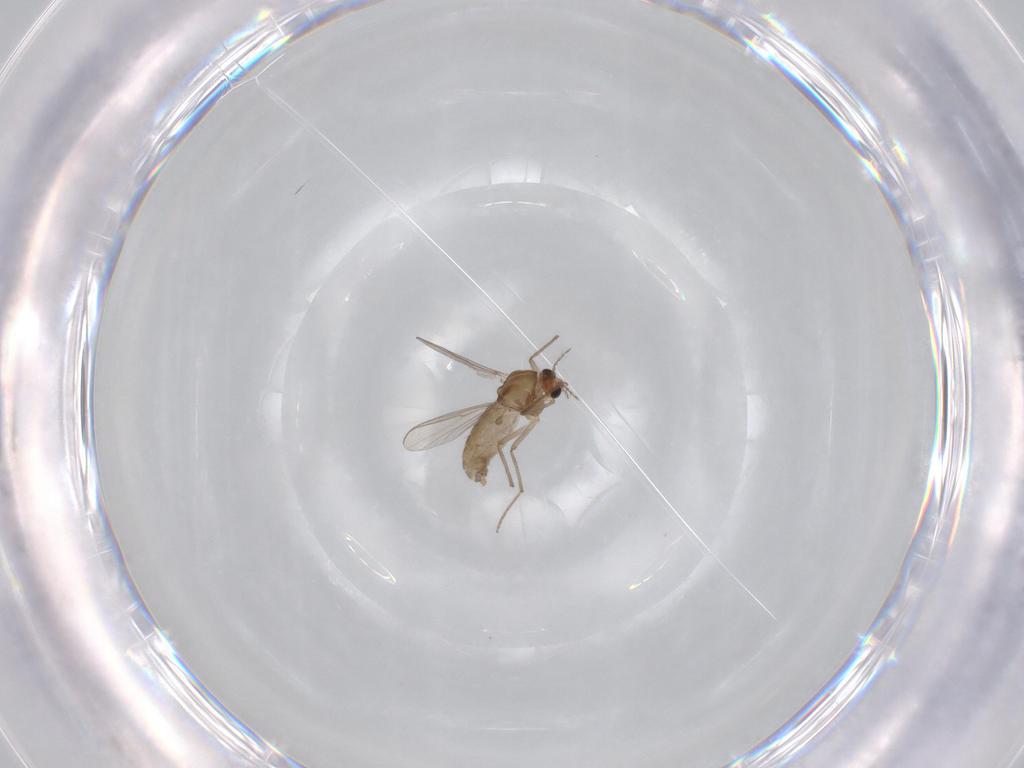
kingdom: Animalia
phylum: Arthropoda
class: Insecta
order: Diptera
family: Chironomidae
